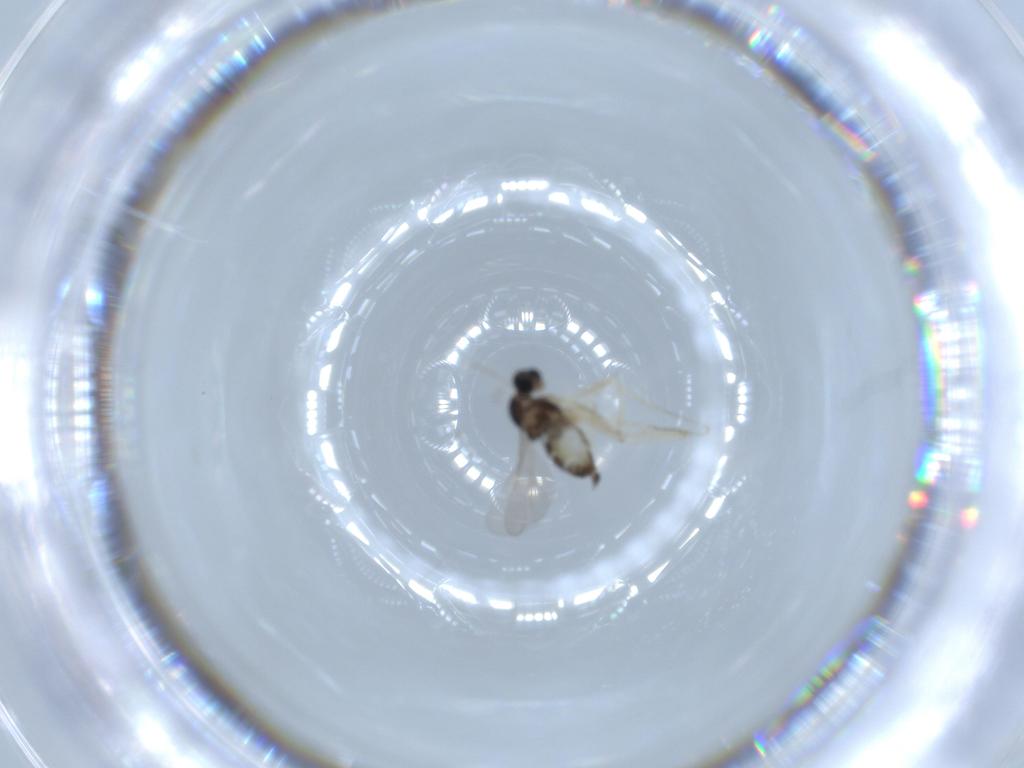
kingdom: Animalia
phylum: Arthropoda
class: Insecta
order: Diptera
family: Cecidomyiidae
